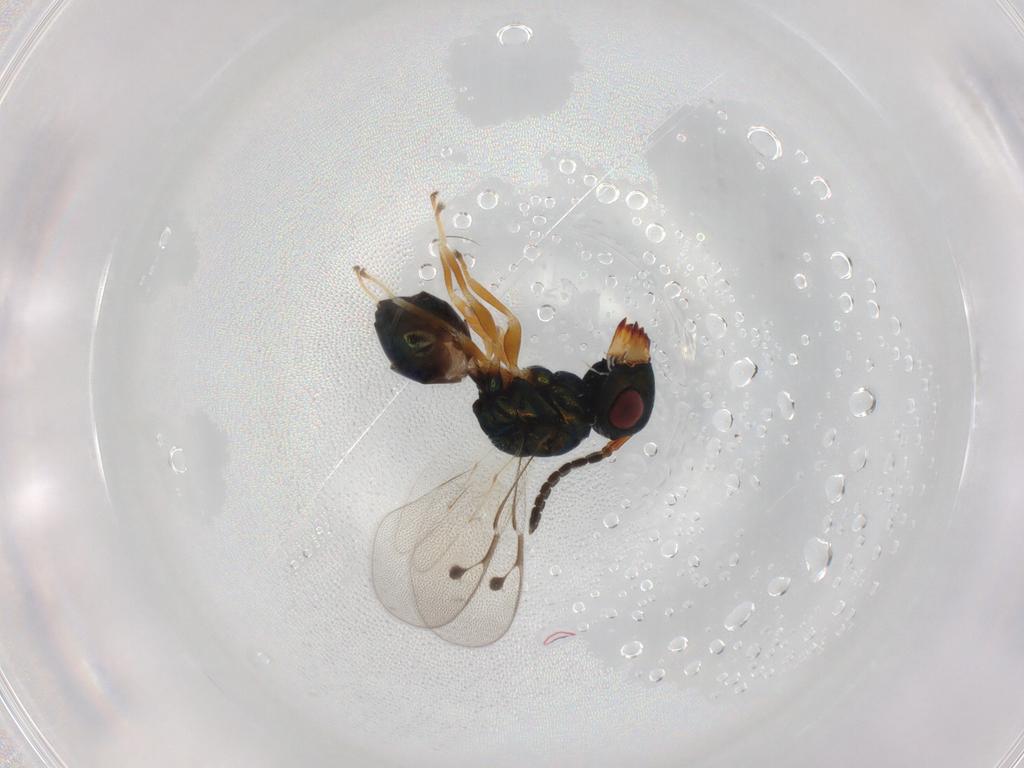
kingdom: Animalia
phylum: Arthropoda
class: Insecta
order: Hymenoptera
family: Pteromalidae
